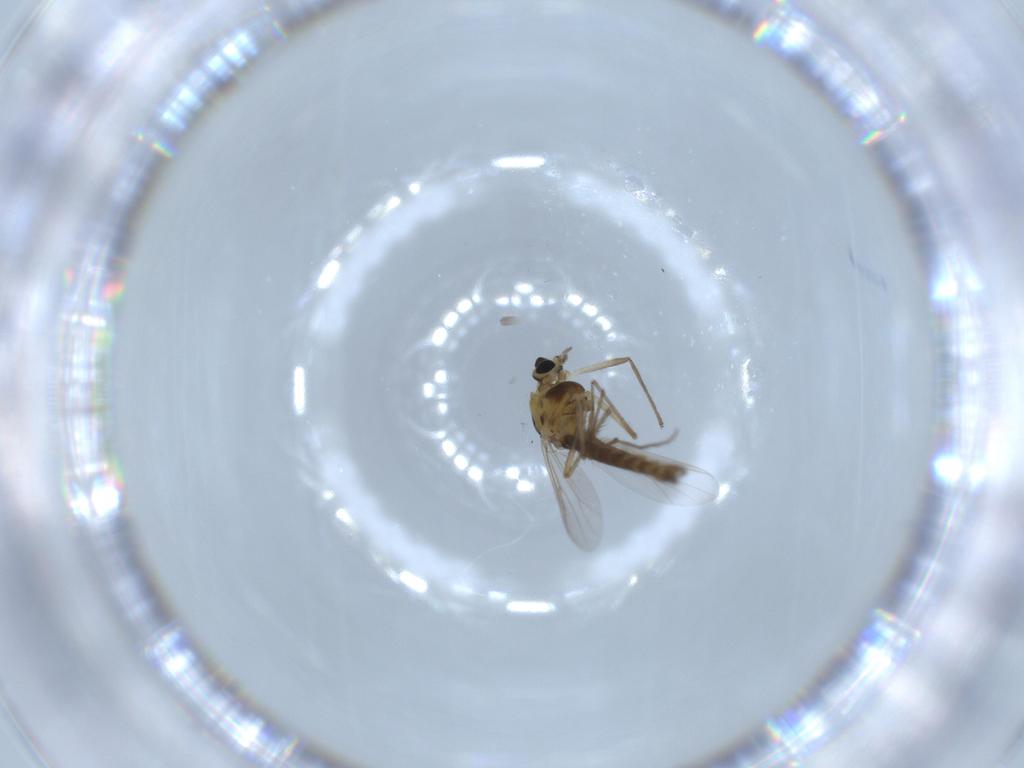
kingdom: Animalia
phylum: Arthropoda
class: Insecta
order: Diptera
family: Chironomidae
